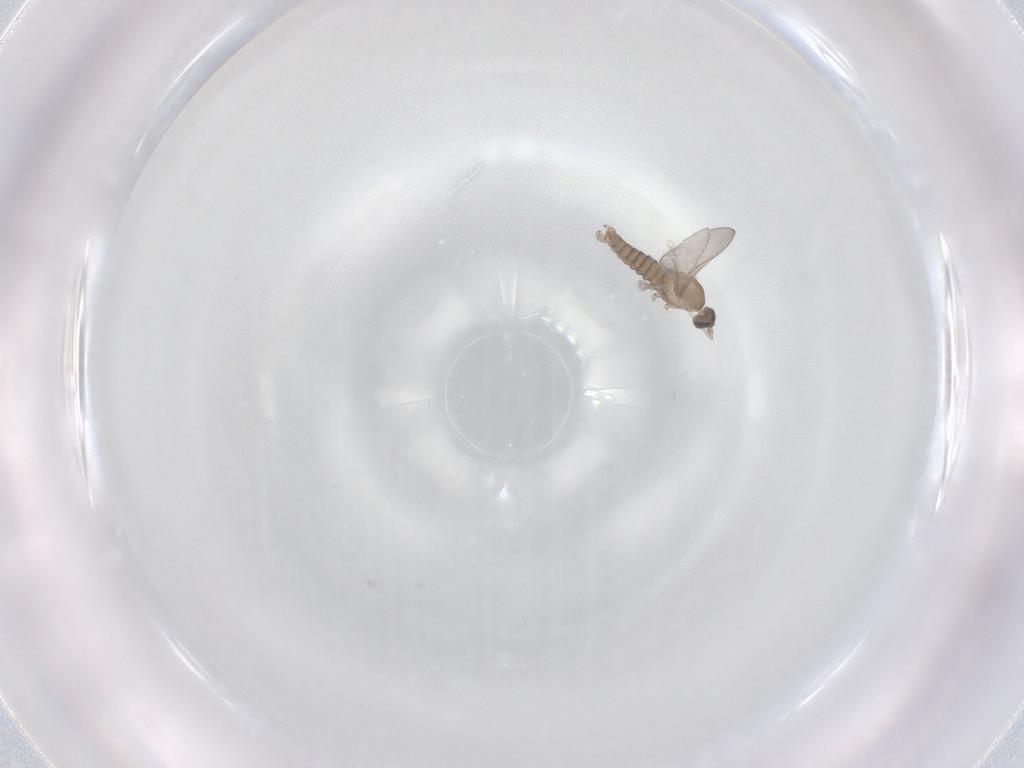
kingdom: Animalia
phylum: Arthropoda
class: Insecta
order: Diptera
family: Cecidomyiidae
